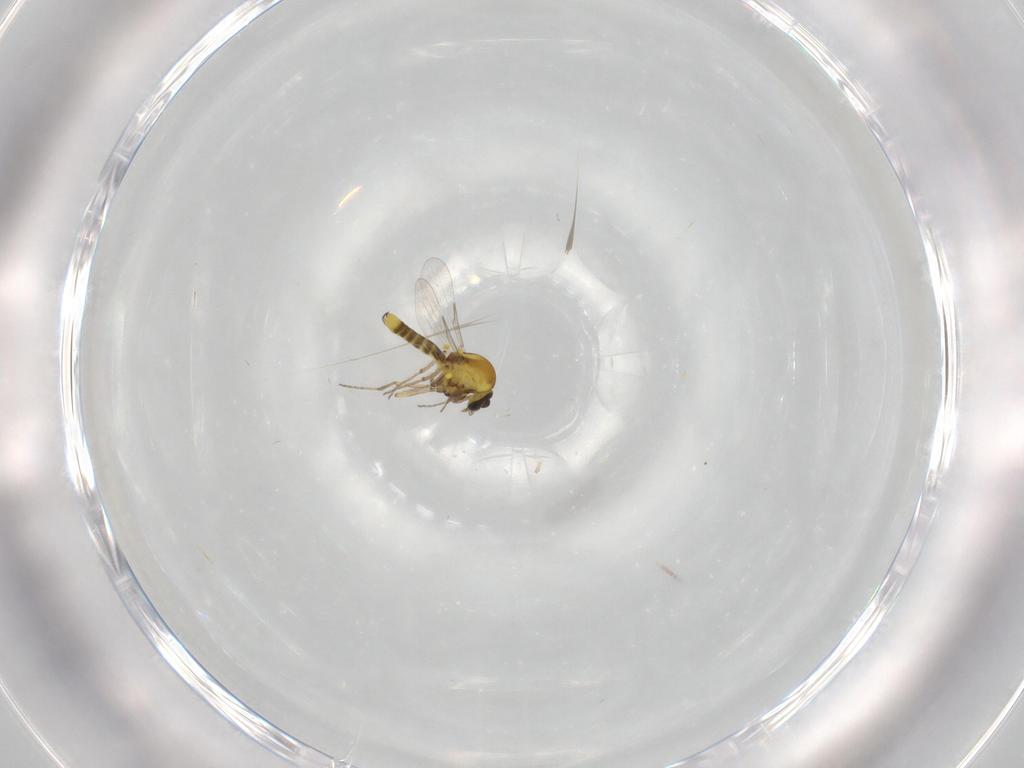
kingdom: Animalia
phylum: Arthropoda
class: Insecta
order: Diptera
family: Ceratopogonidae
